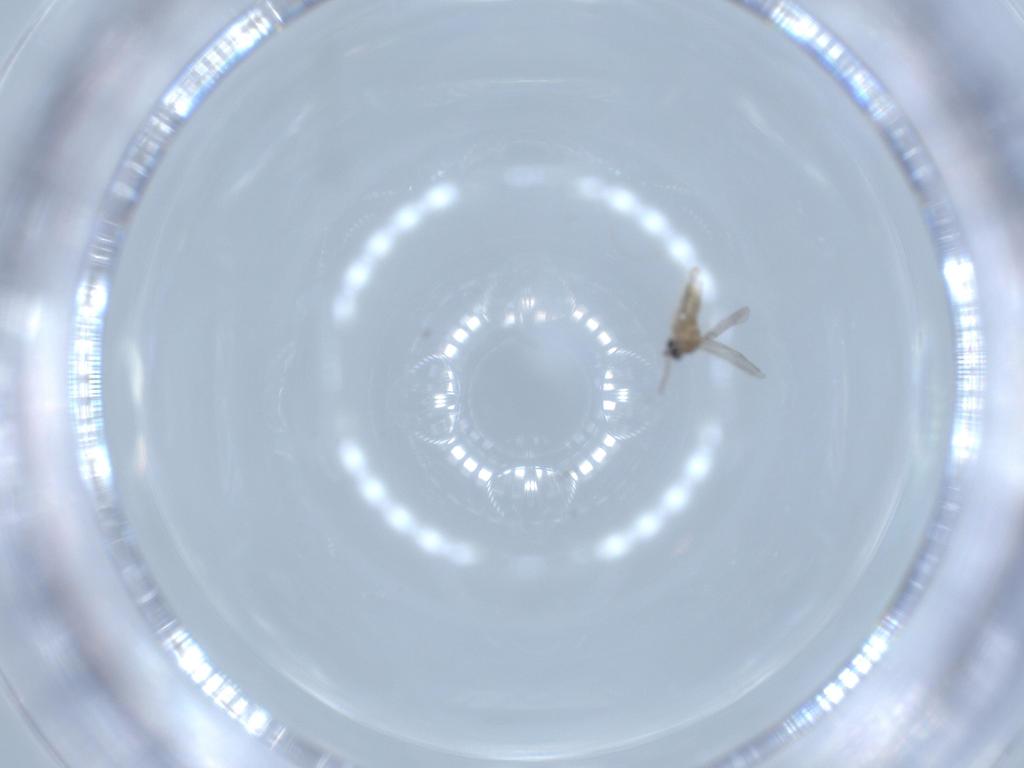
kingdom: Animalia
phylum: Arthropoda
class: Insecta
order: Diptera
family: Cecidomyiidae
